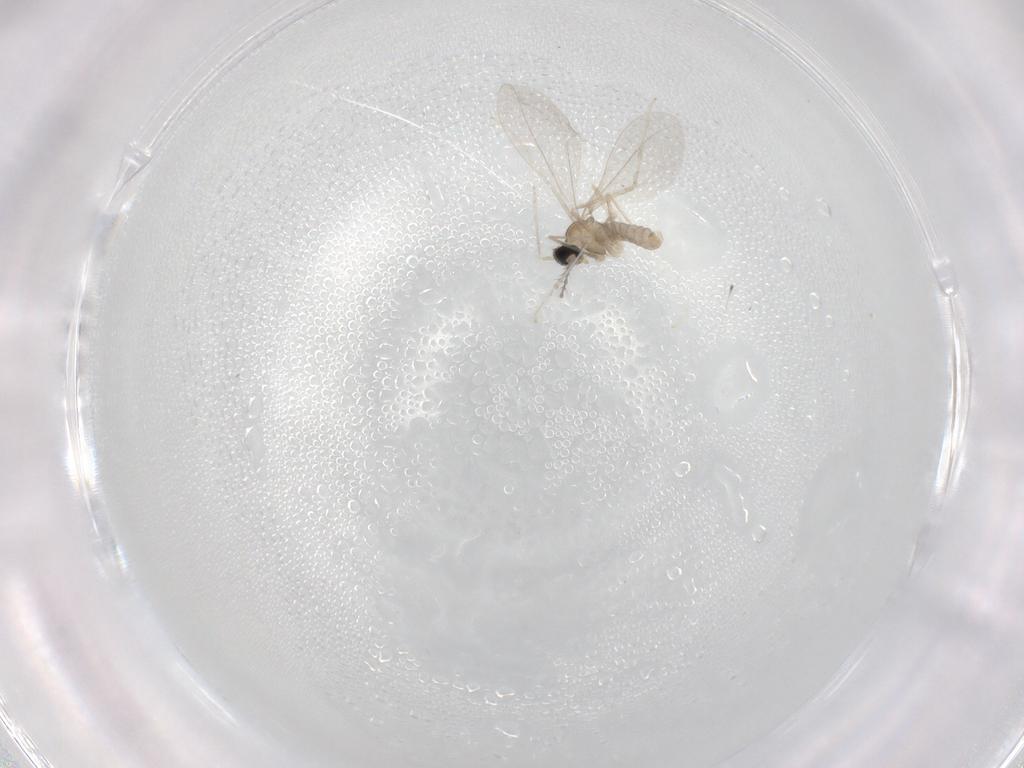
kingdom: Animalia
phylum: Arthropoda
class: Insecta
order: Diptera
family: Cecidomyiidae
